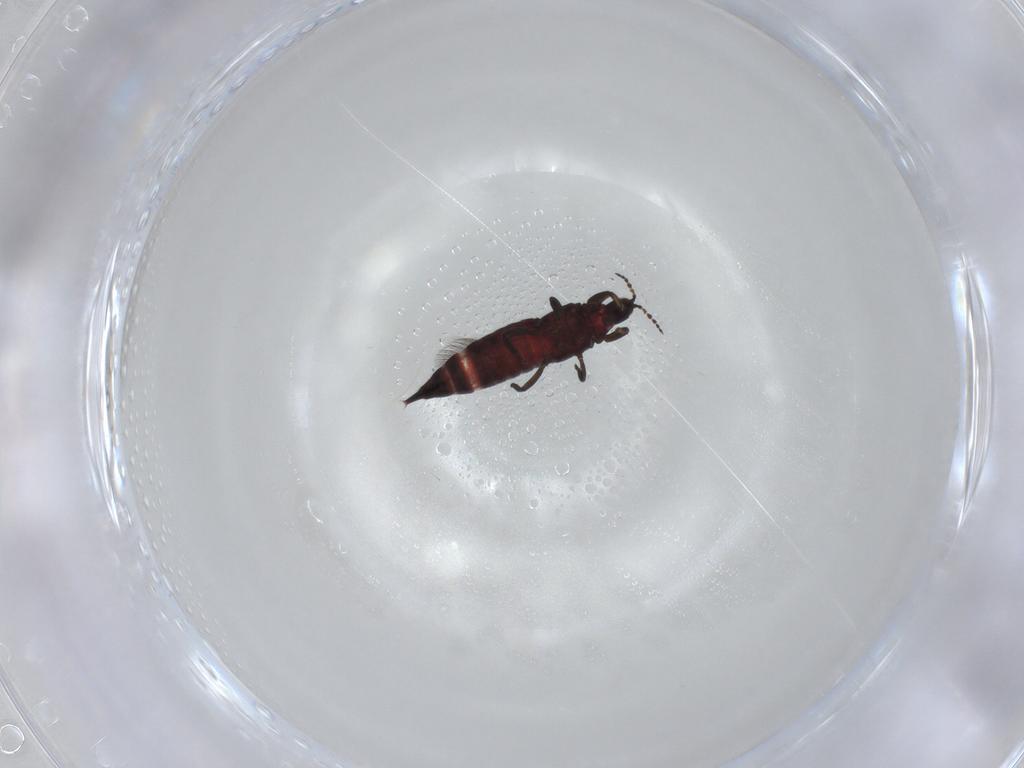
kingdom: Animalia
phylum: Arthropoda
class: Insecta
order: Thysanoptera
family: Phlaeothripidae
